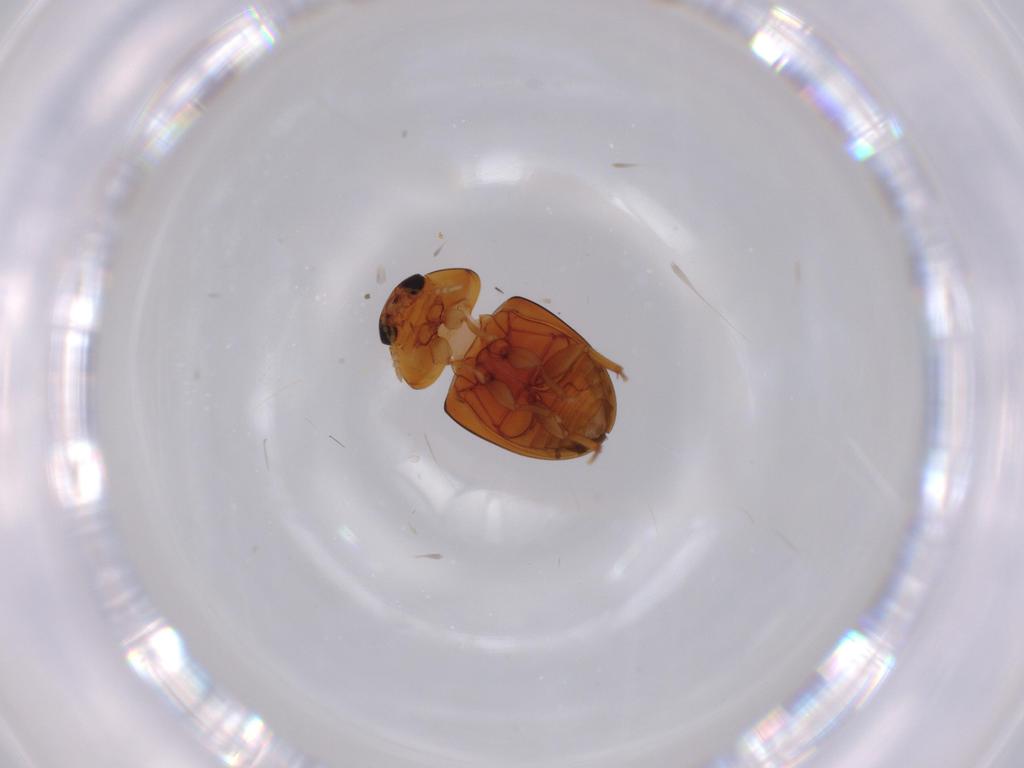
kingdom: Animalia
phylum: Arthropoda
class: Insecta
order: Coleoptera
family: Phalacridae
